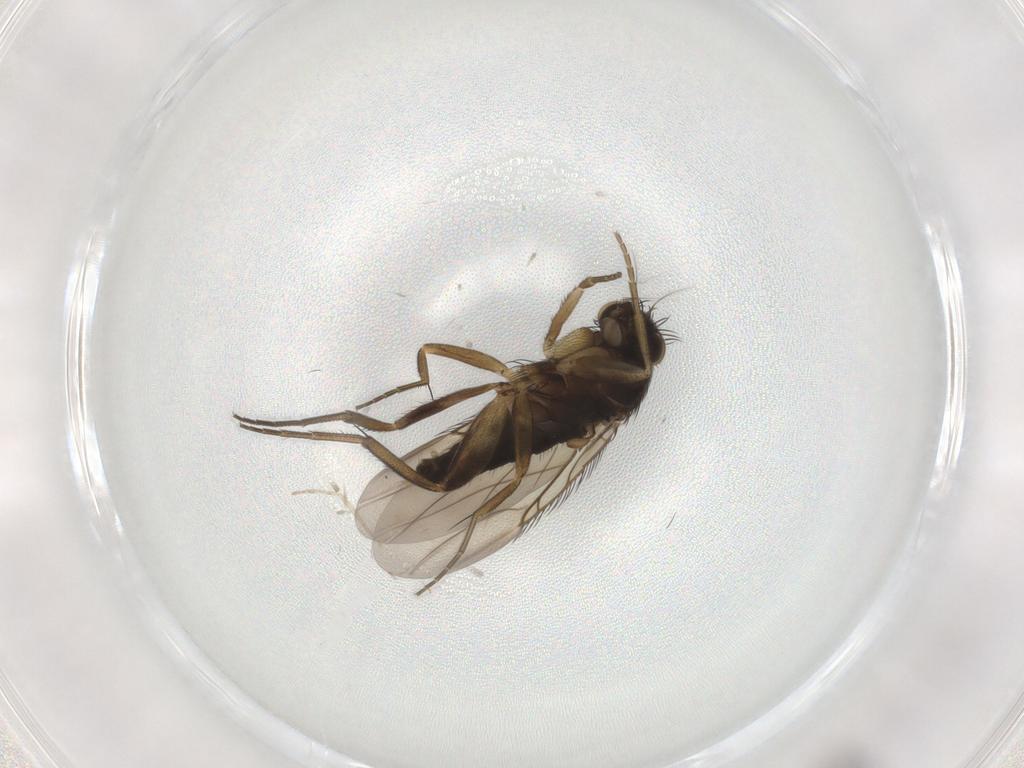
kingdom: Animalia
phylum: Arthropoda
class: Insecta
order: Diptera
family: Phoridae
